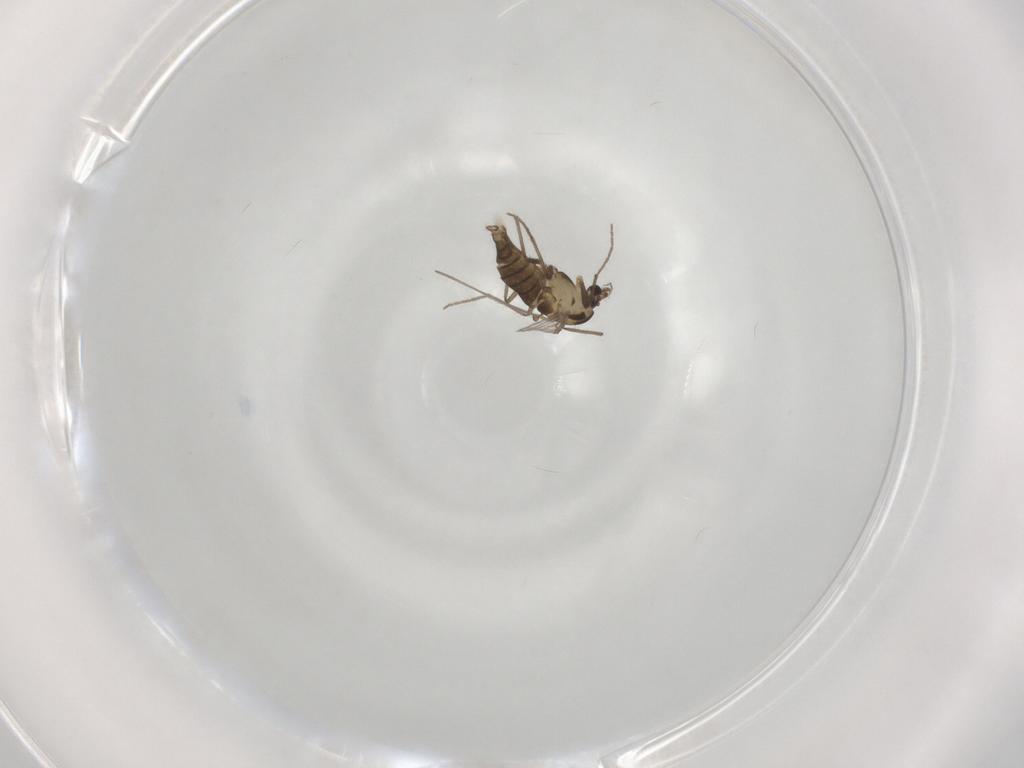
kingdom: Animalia
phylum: Arthropoda
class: Insecta
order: Diptera
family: Chironomidae
